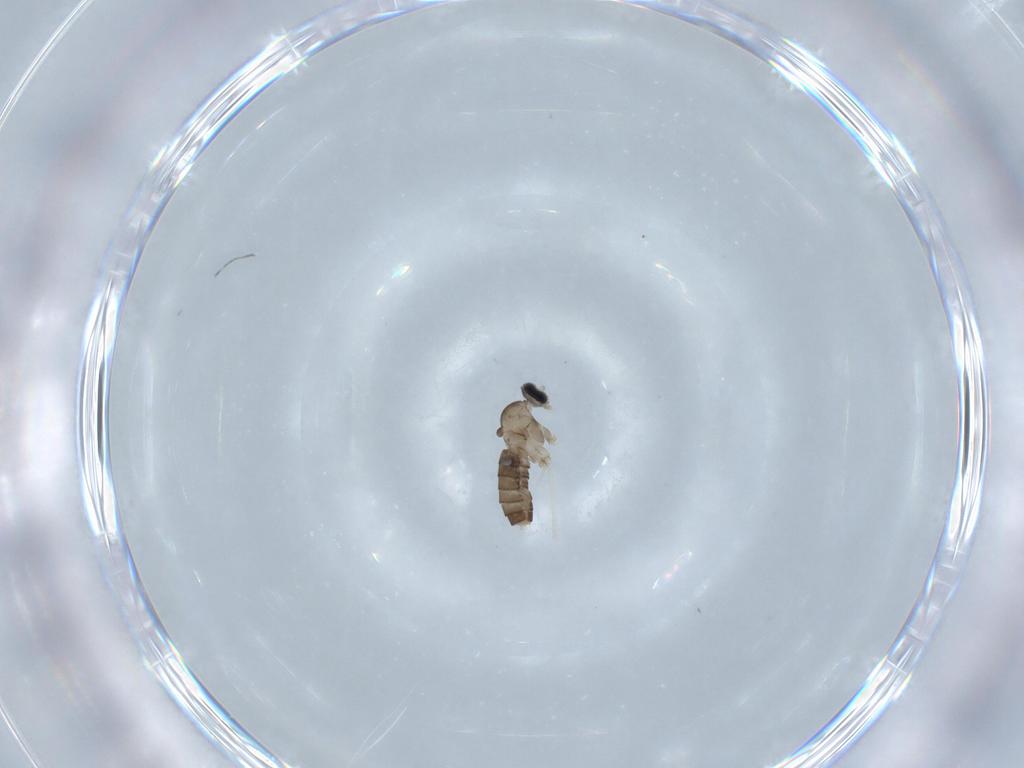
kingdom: Animalia
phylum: Arthropoda
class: Insecta
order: Diptera
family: Cecidomyiidae
